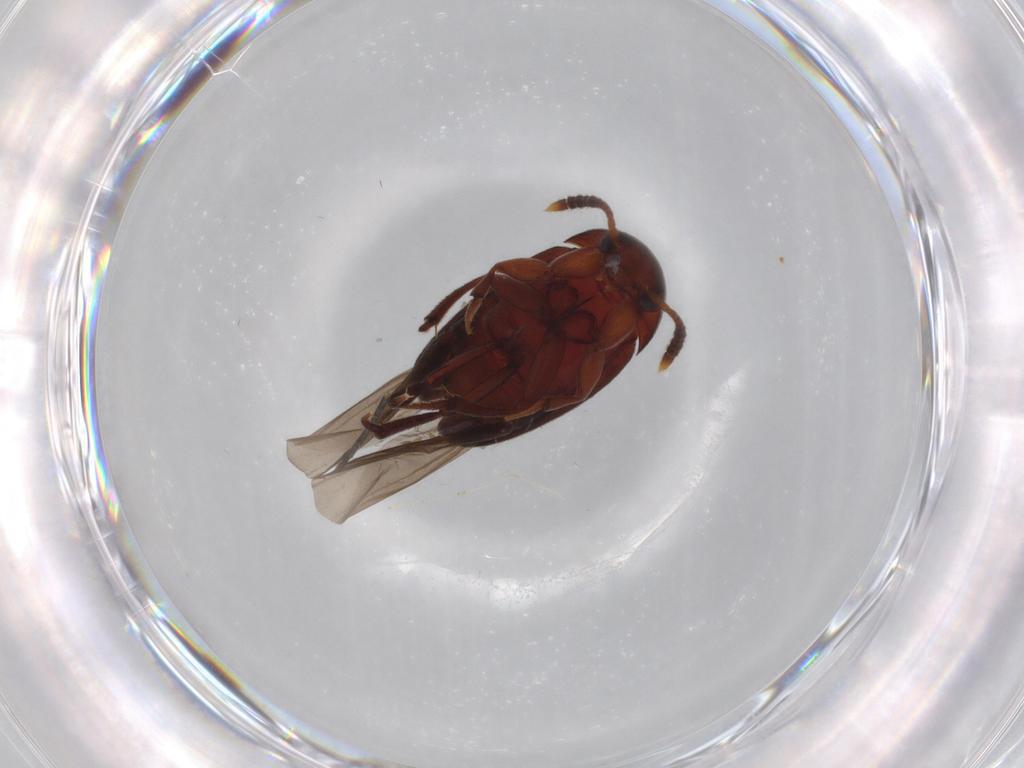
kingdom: Animalia
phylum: Arthropoda
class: Insecta
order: Coleoptera
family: Leiodidae
